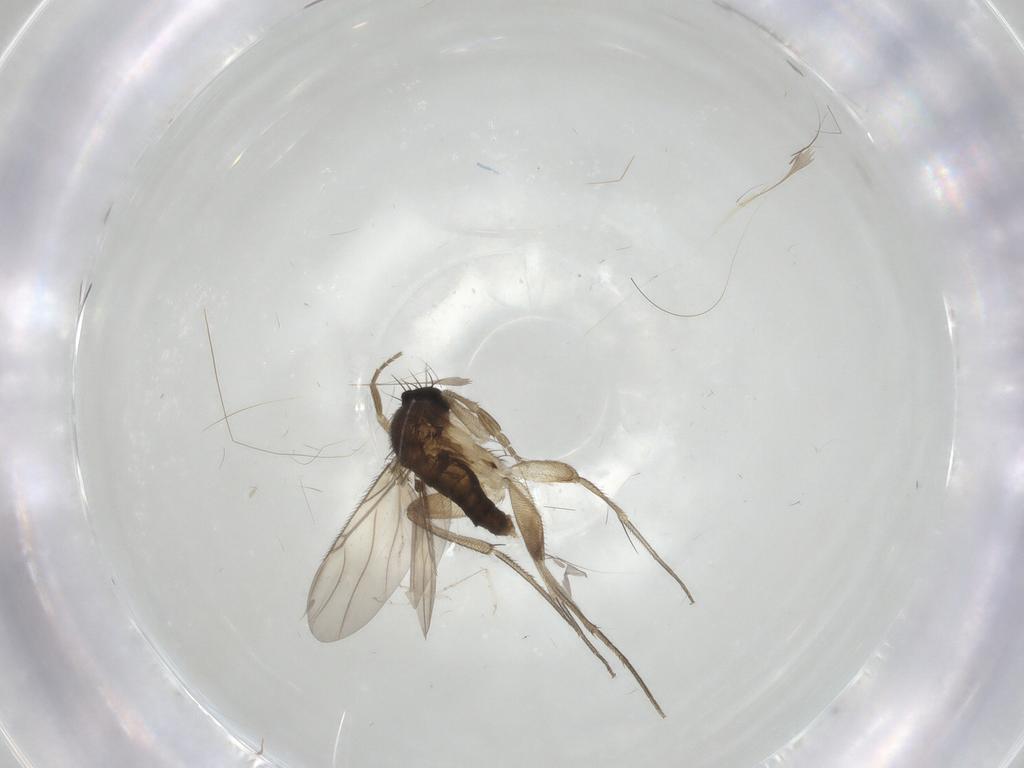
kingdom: Animalia
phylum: Arthropoda
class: Insecta
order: Diptera
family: Phoridae
